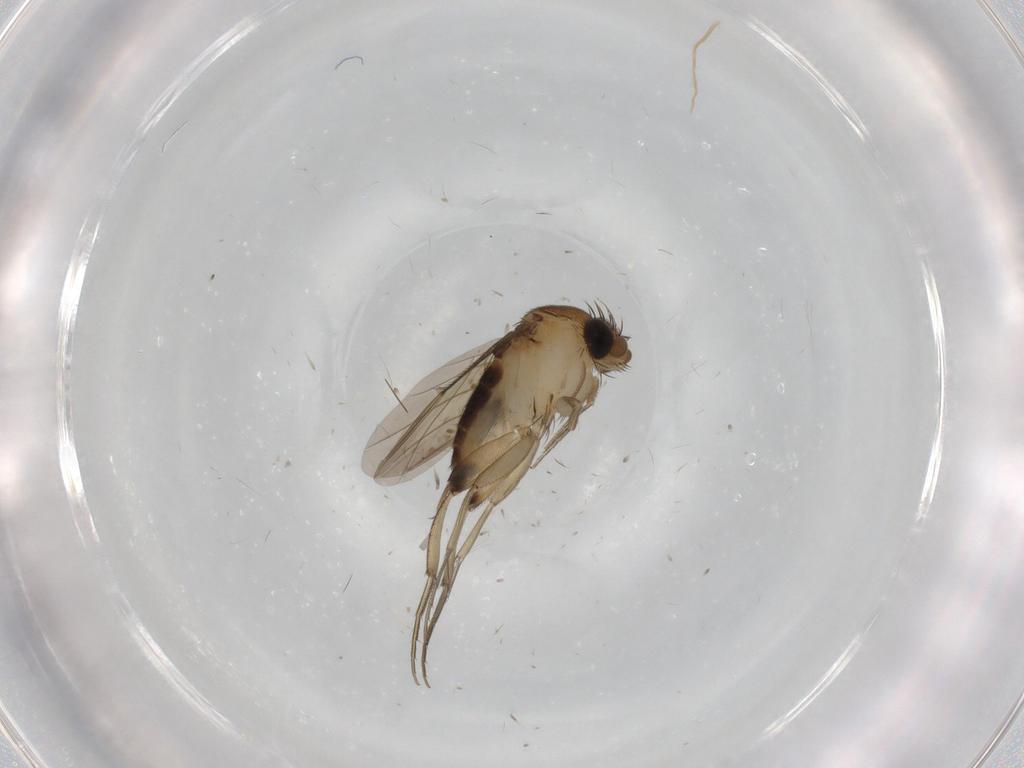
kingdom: Animalia
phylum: Arthropoda
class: Insecta
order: Diptera
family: Phoridae
